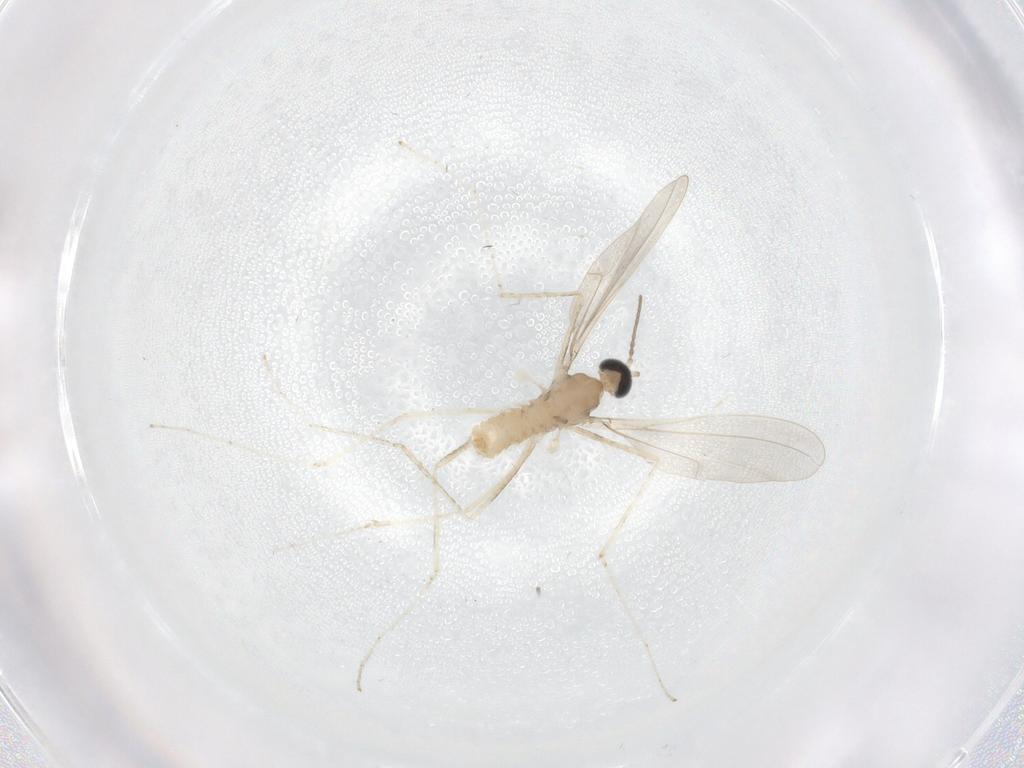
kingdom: Animalia
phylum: Arthropoda
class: Insecta
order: Diptera
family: Cecidomyiidae
